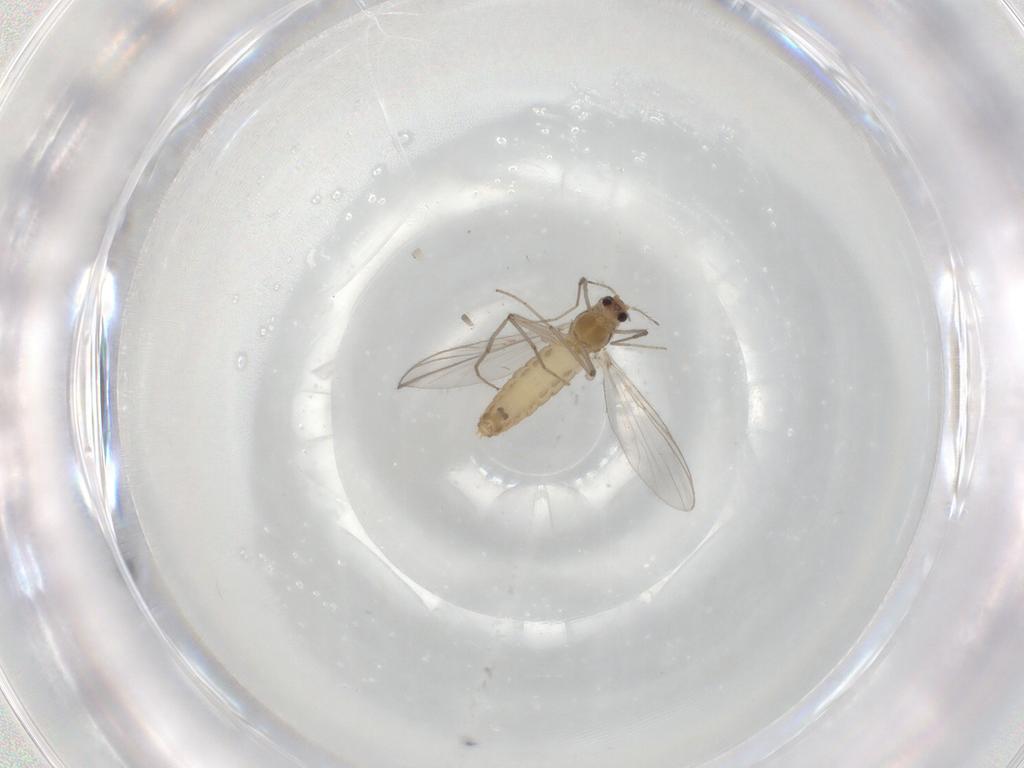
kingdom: Animalia
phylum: Arthropoda
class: Insecta
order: Diptera
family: Chironomidae
